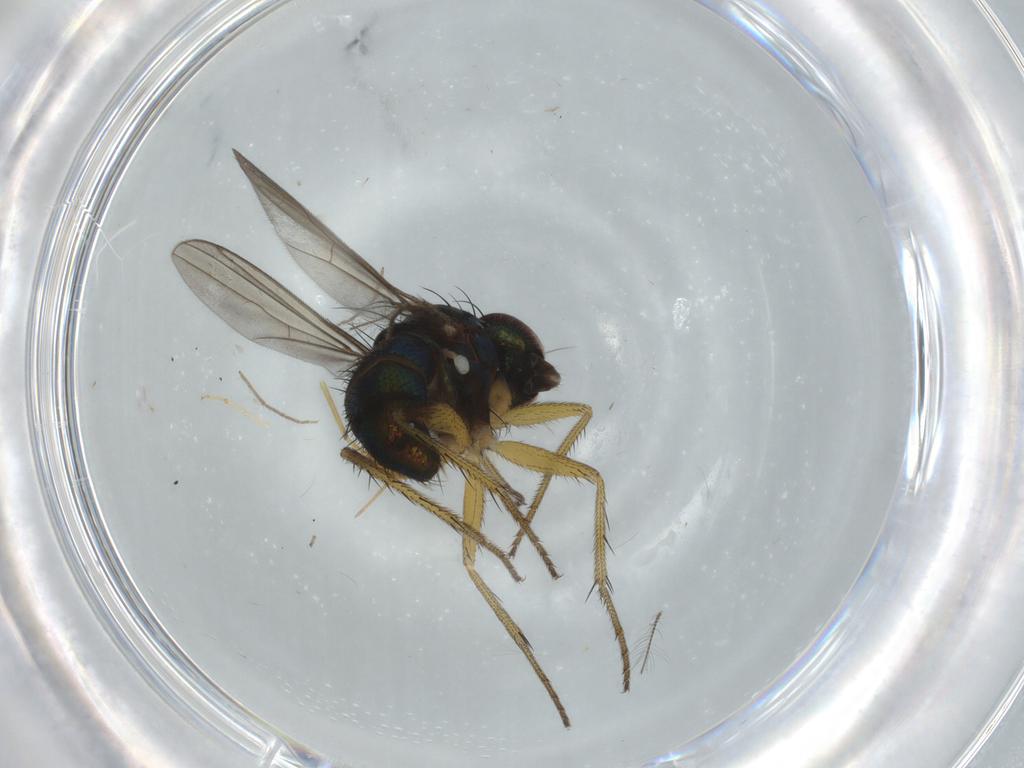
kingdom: Animalia
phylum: Arthropoda
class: Insecta
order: Diptera
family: Dolichopodidae
